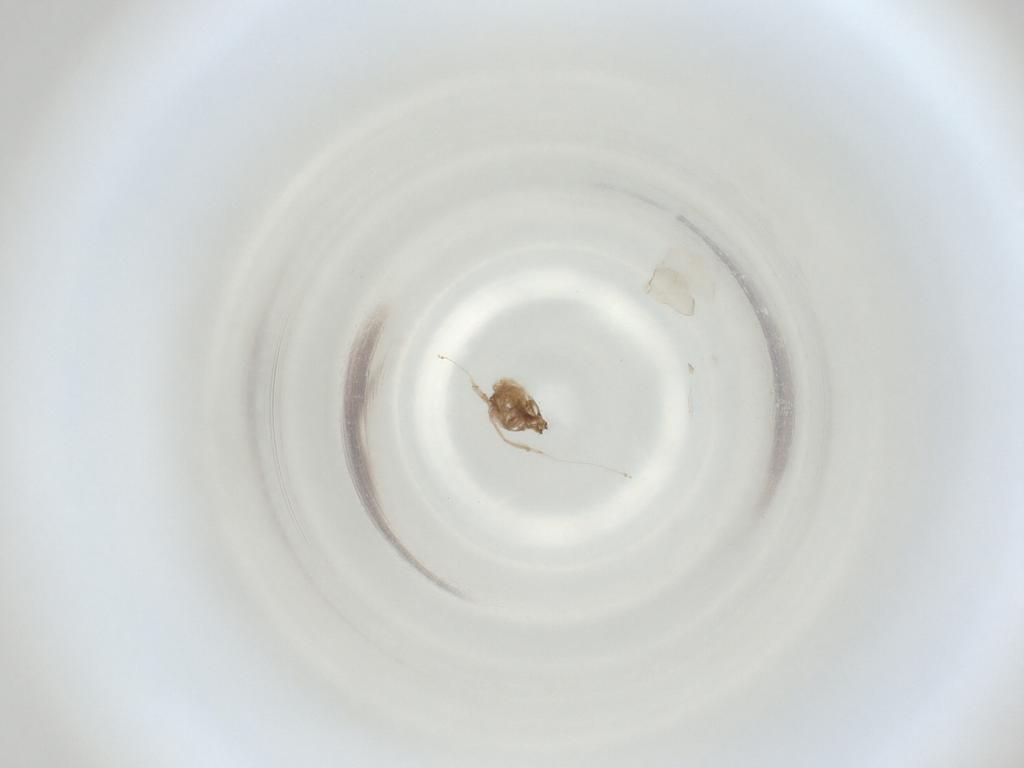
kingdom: Animalia
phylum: Arthropoda
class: Insecta
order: Diptera
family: Cecidomyiidae
